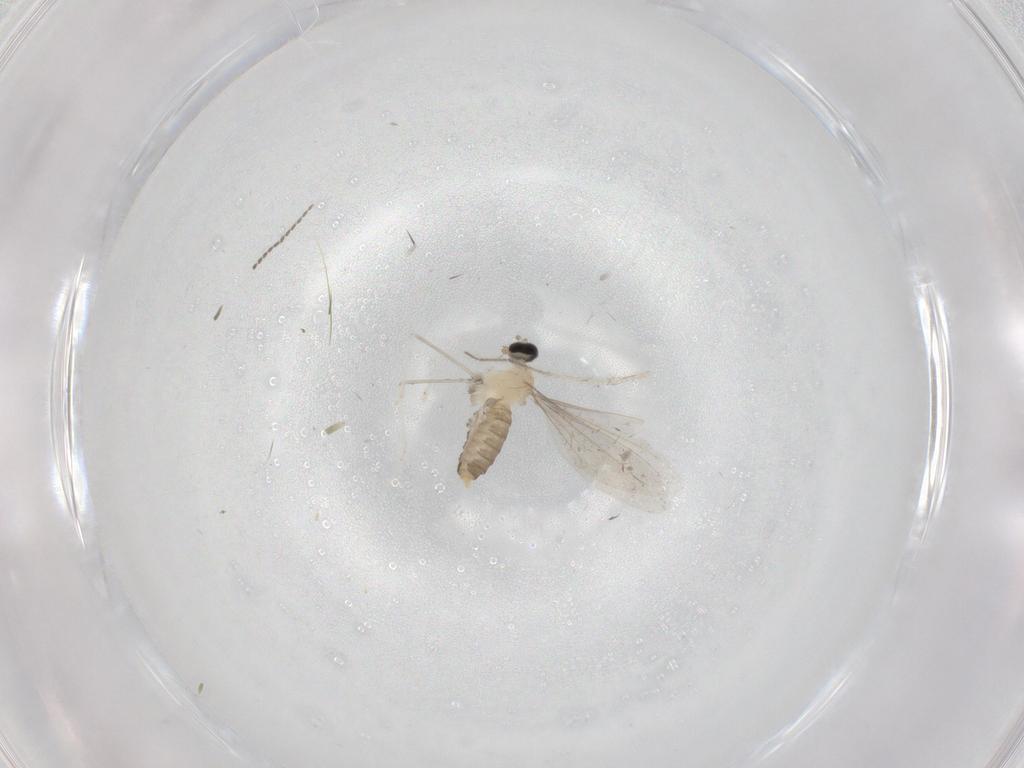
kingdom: Animalia
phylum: Arthropoda
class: Insecta
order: Diptera
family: Cecidomyiidae
